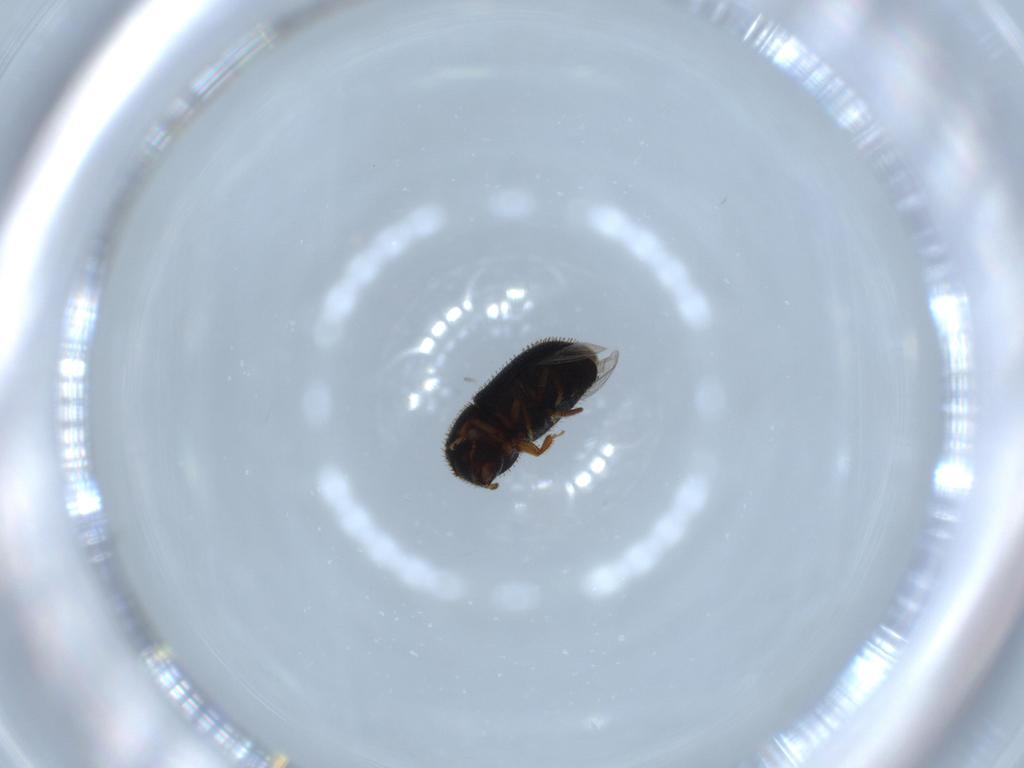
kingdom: Animalia
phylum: Arthropoda
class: Insecta
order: Coleoptera
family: Curculionidae
